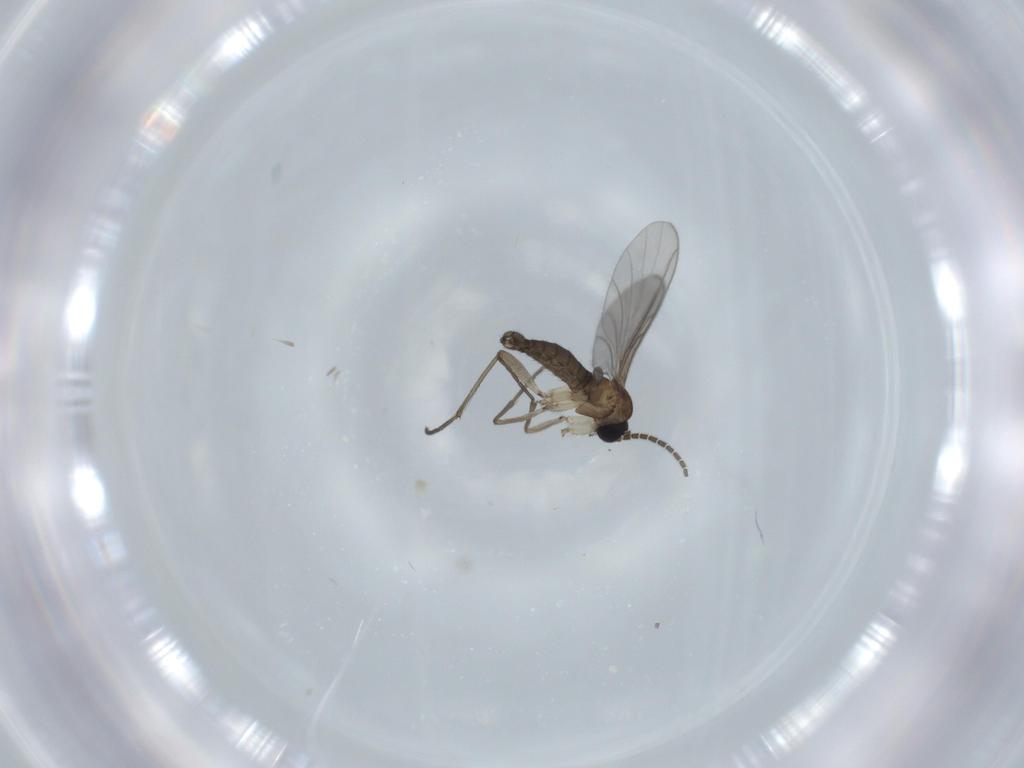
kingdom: Animalia
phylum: Arthropoda
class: Insecta
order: Diptera
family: Sciaridae
